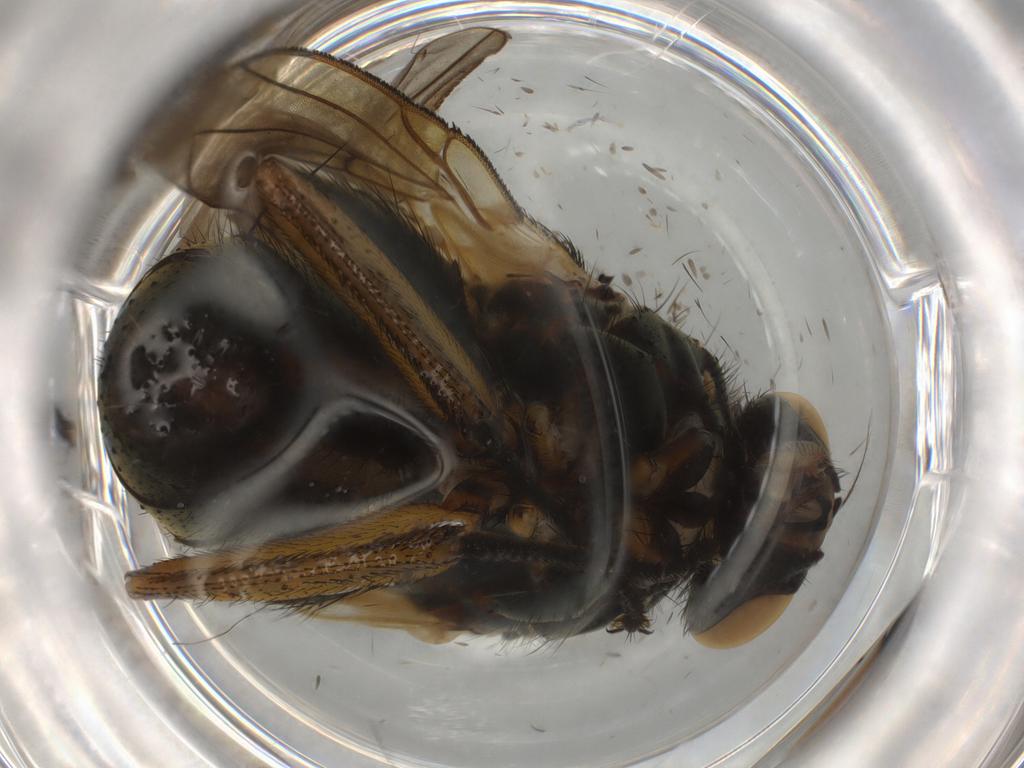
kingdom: Animalia
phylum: Arthropoda
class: Insecta
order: Diptera
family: Muscidae
